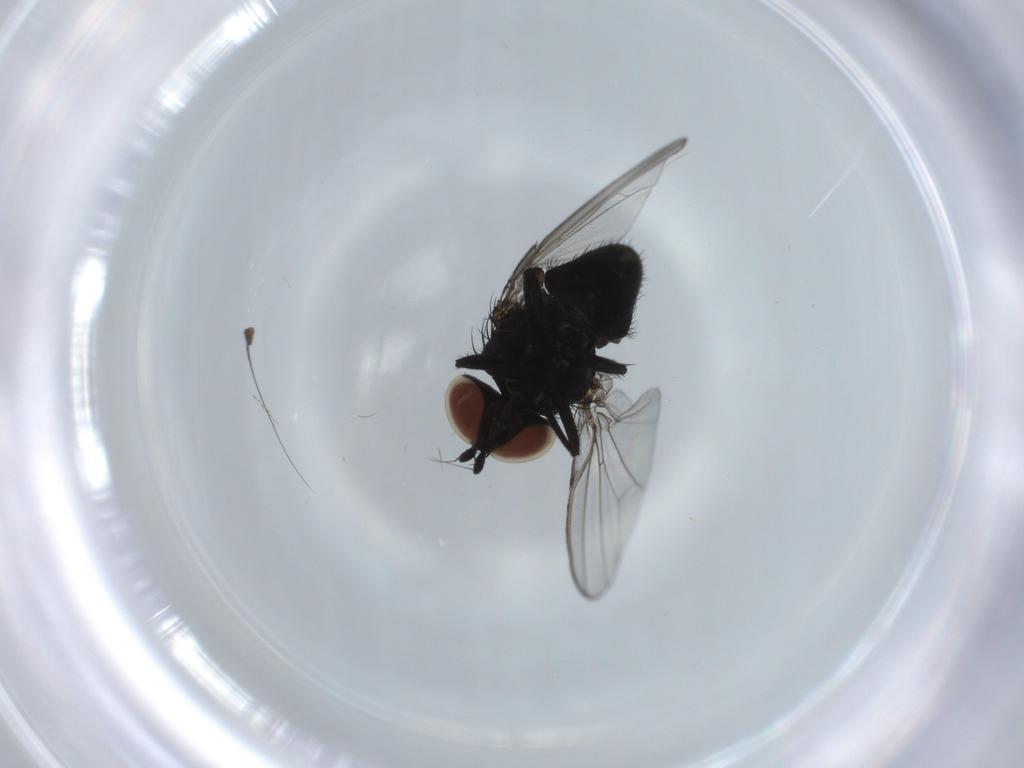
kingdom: Animalia
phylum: Arthropoda
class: Insecta
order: Diptera
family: Milichiidae
